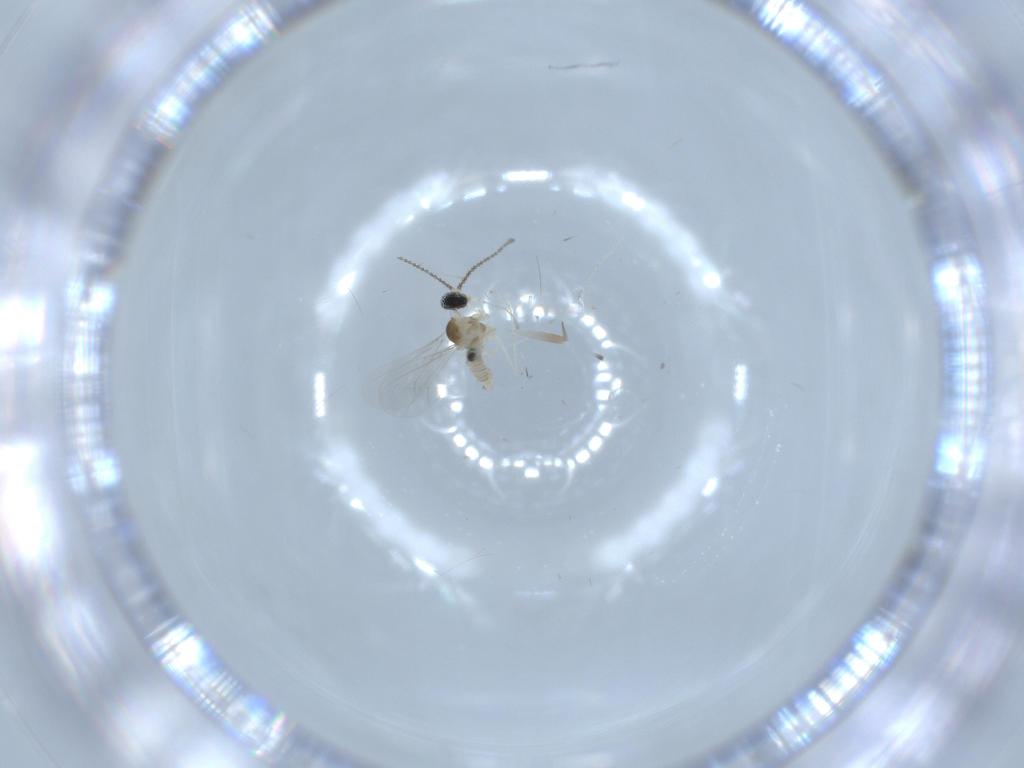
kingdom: Animalia
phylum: Arthropoda
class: Insecta
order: Diptera
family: Cecidomyiidae
